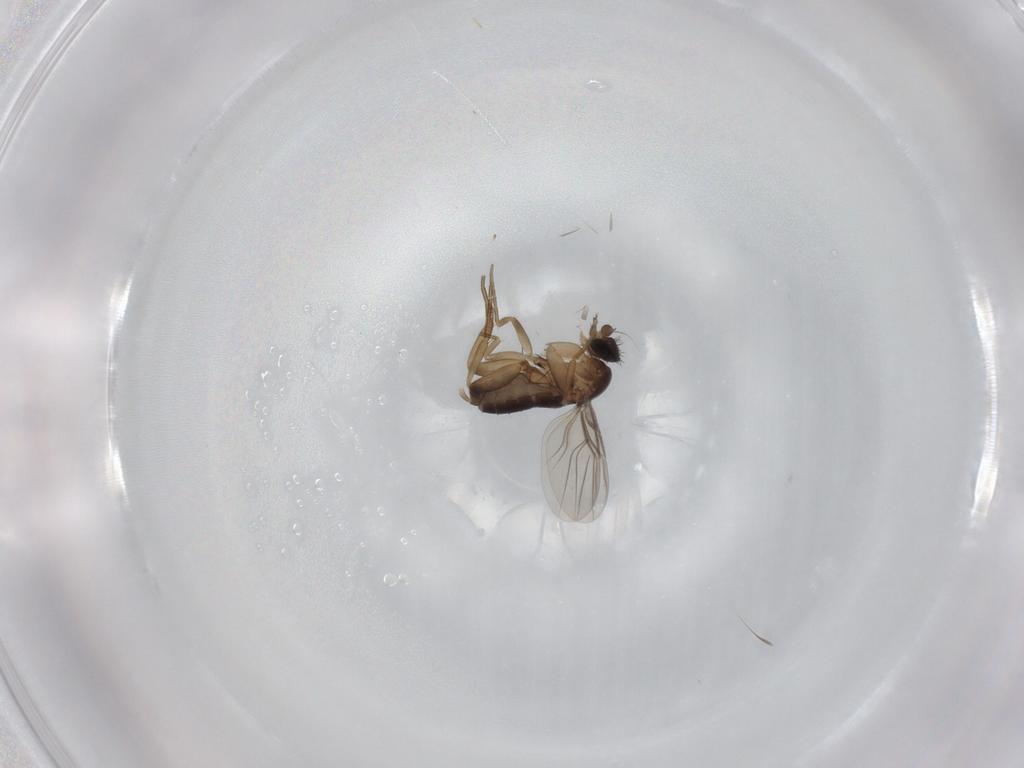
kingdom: Animalia
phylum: Arthropoda
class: Insecta
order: Diptera
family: Phoridae
